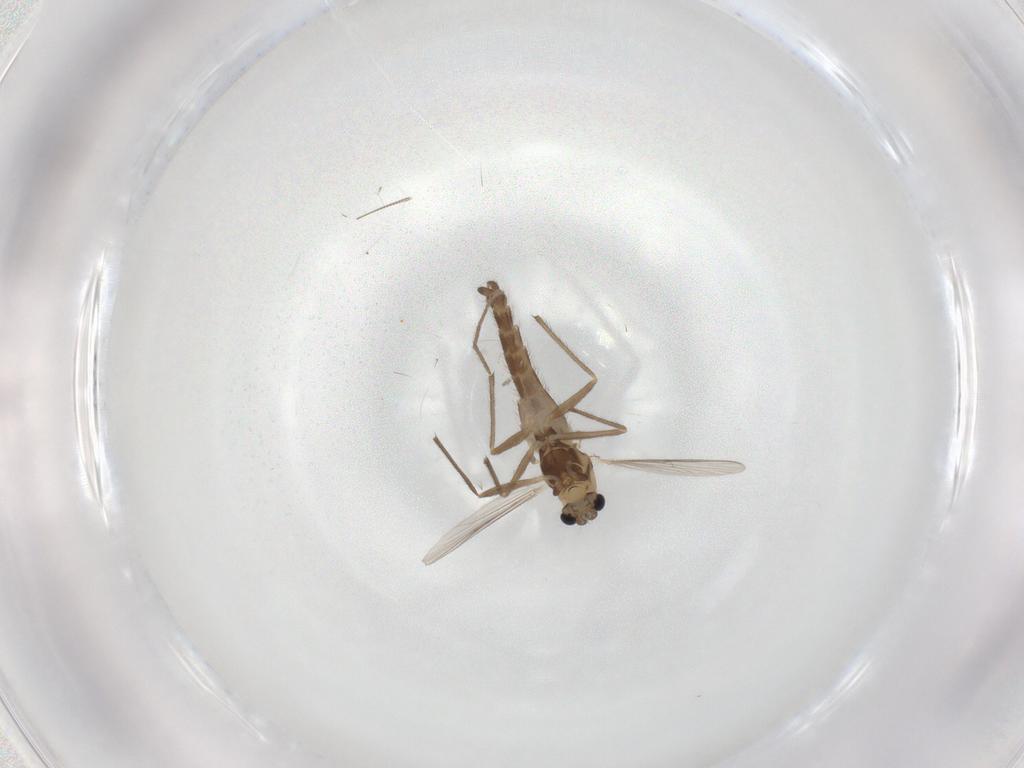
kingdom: Animalia
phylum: Arthropoda
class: Insecta
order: Diptera
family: Chironomidae
